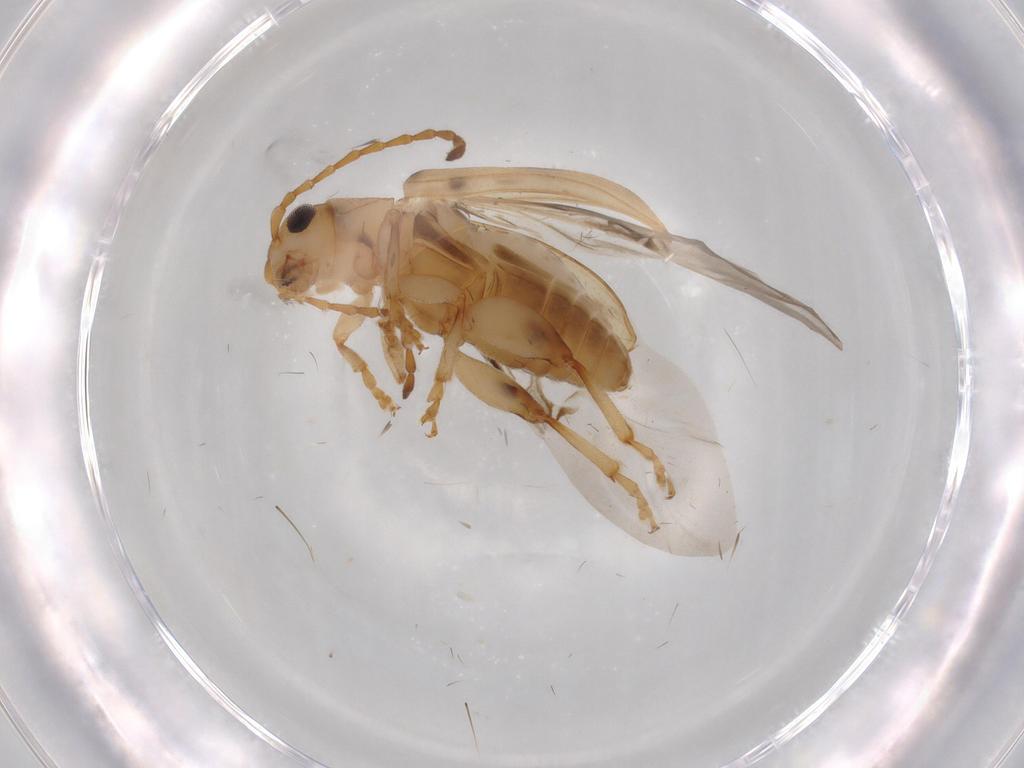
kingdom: Animalia
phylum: Arthropoda
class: Insecta
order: Coleoptera
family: Chrysomelidae
